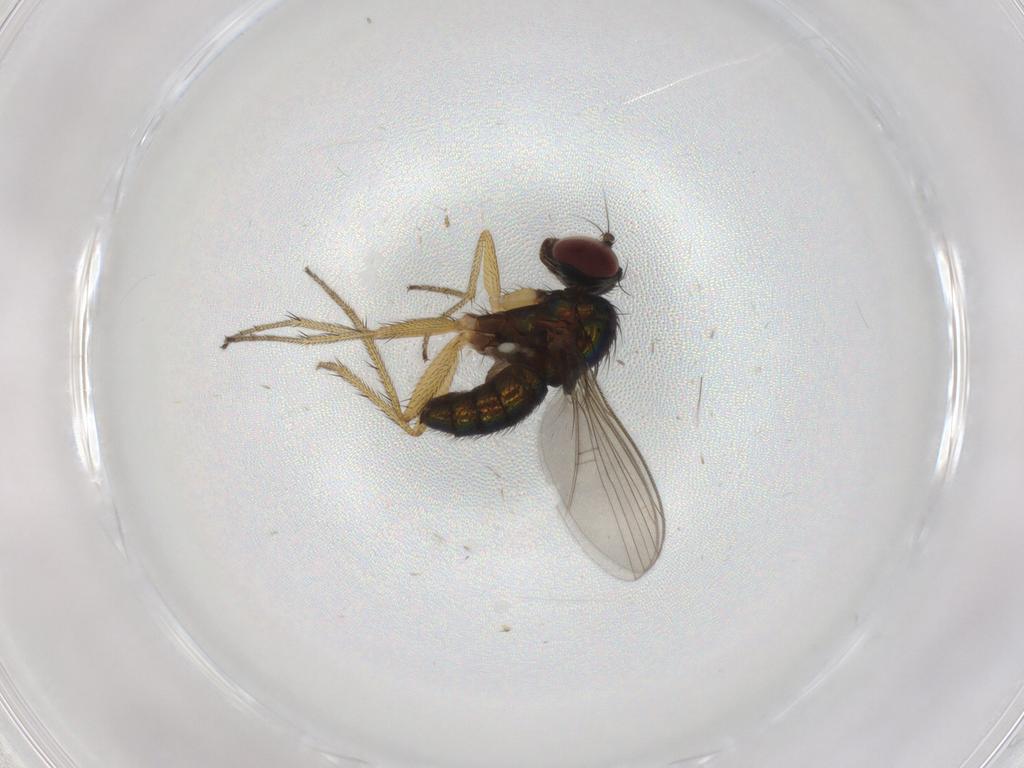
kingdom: Animalia
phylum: Arthropoda
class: Insecta
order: Diptera
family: Dolichopodidae
